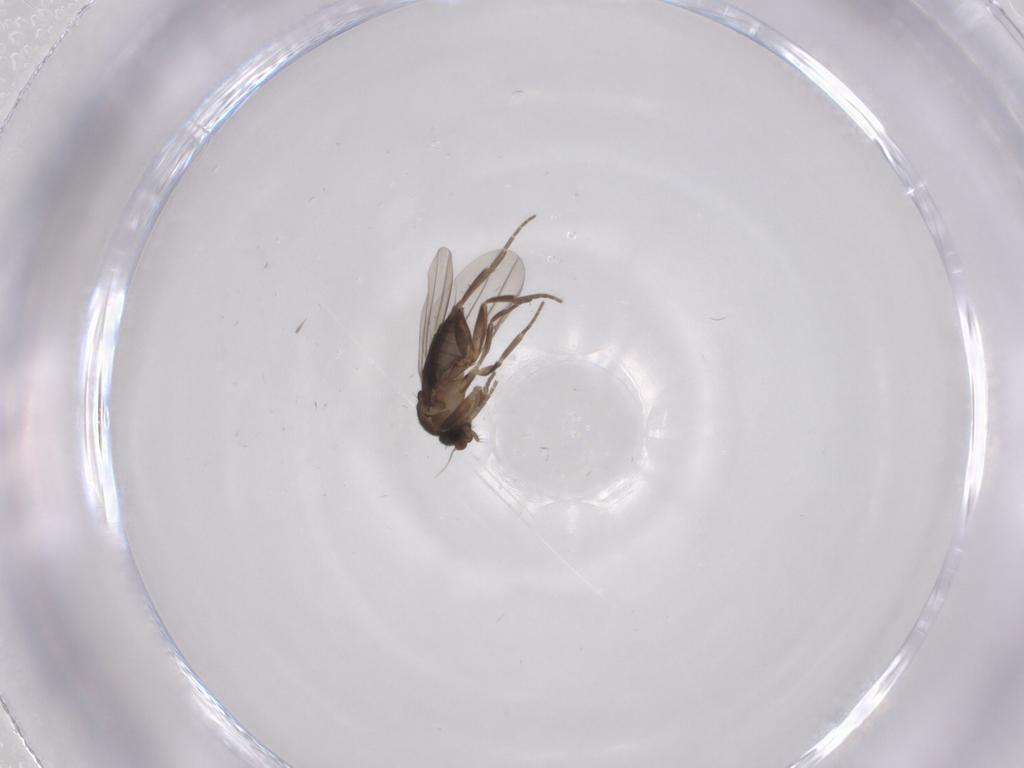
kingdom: Animalia
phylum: Arthropoda
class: Insecta
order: Diptera
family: Phoridae
